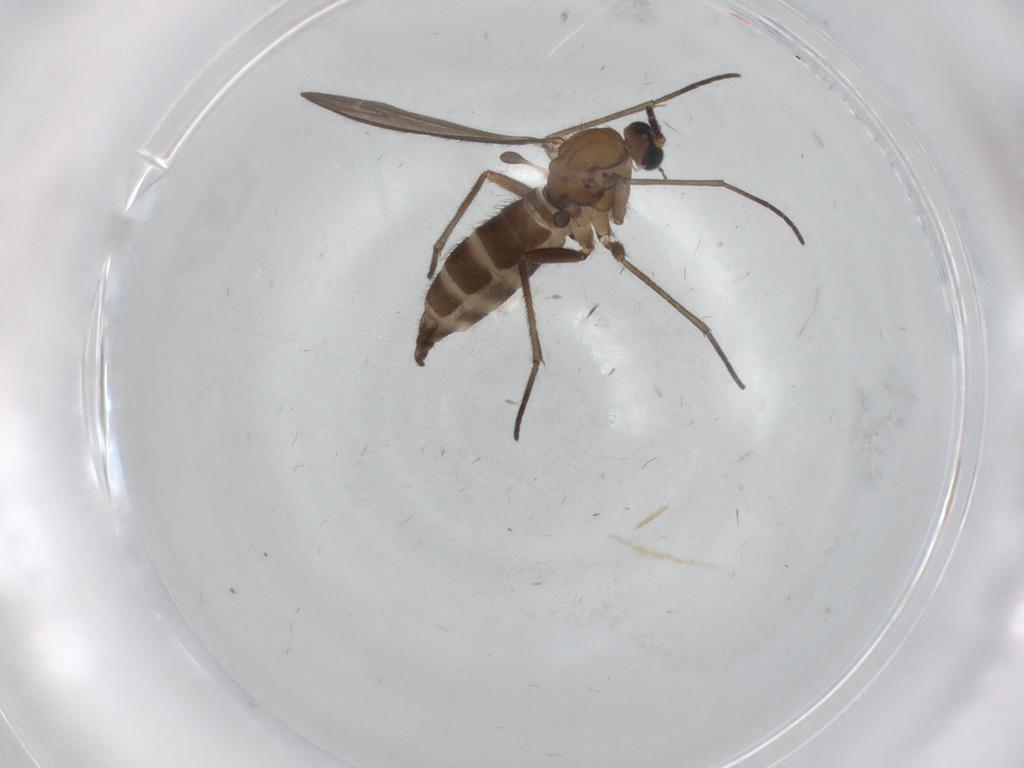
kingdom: Animalia
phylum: Arthropoda
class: Insecta
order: Diptera
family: Sciaridae
